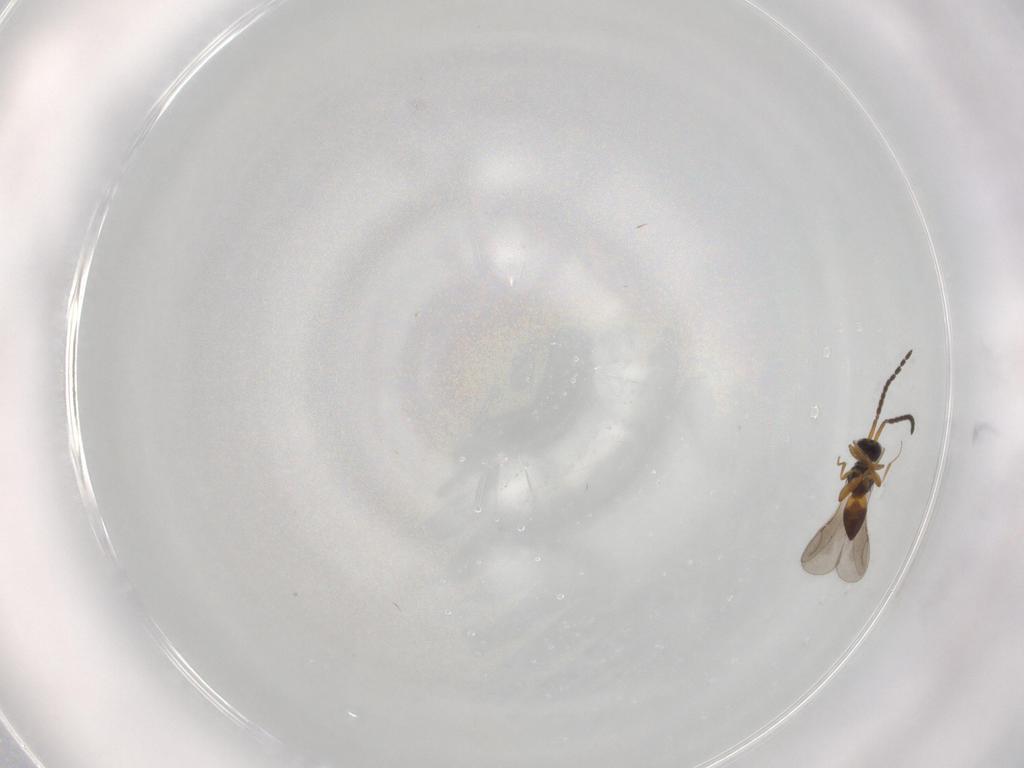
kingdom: Animalia
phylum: Arthropoda
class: Insecta
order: Hymenoptera
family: Ceraphronidae
